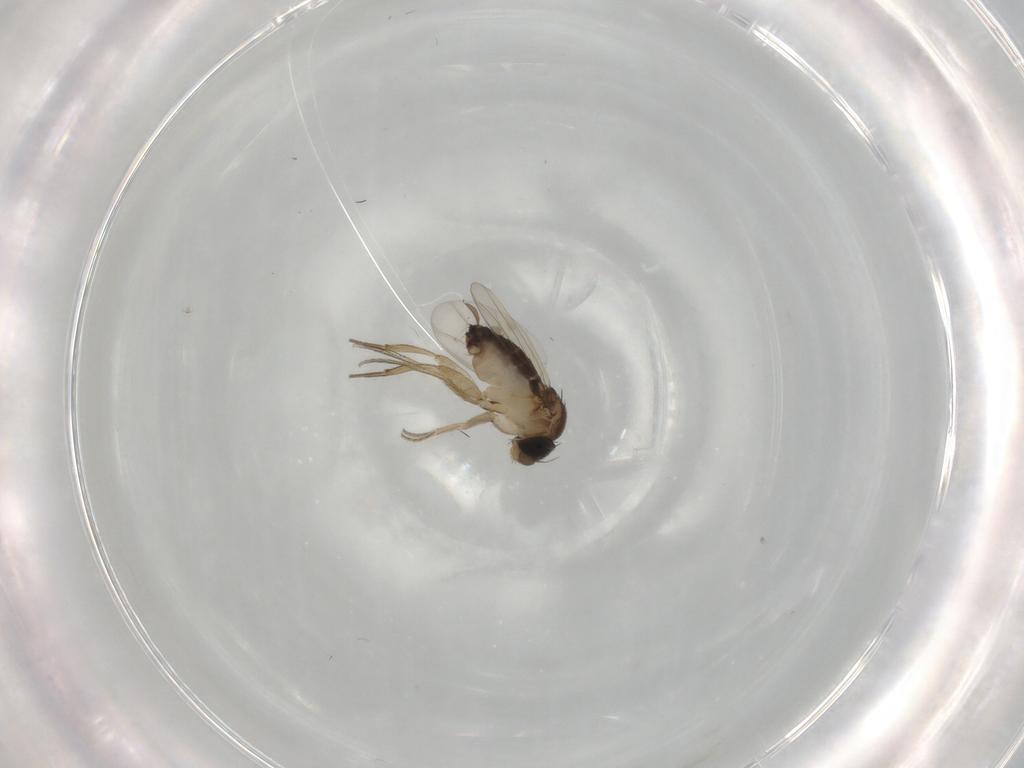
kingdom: Animalia
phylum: Arthropoda
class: Insecta
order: Diptera
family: Cecidomyiidae
